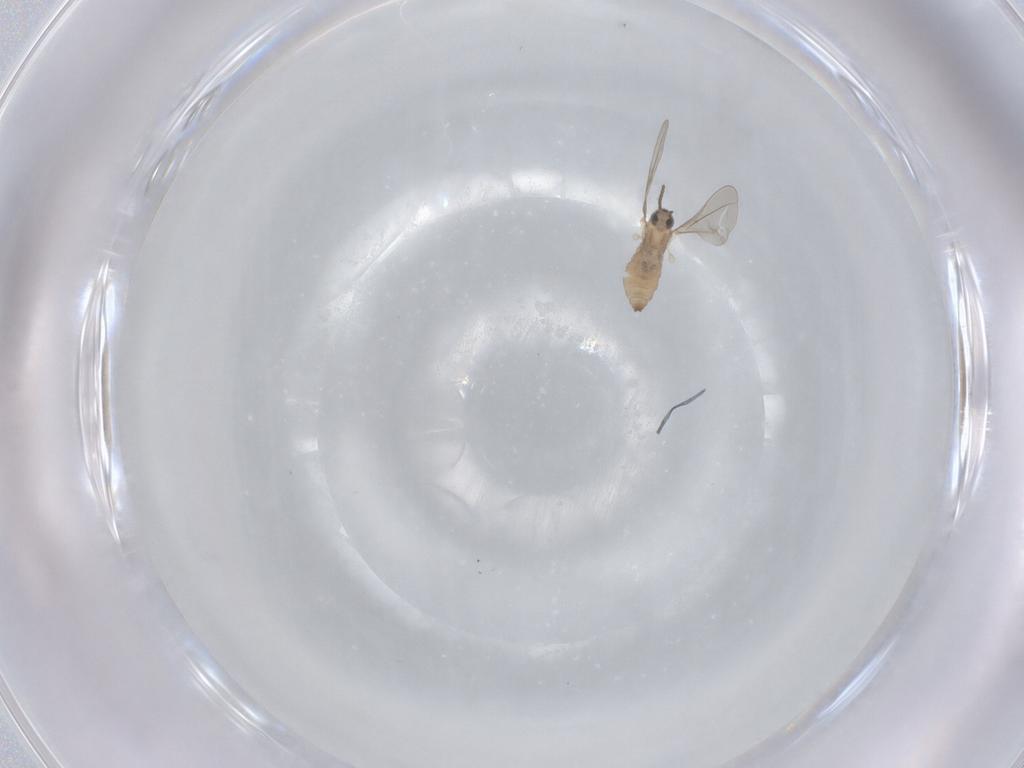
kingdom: Animalia
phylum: Arthropoda
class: Insecta
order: Diptera
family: Cecidomyiidae
